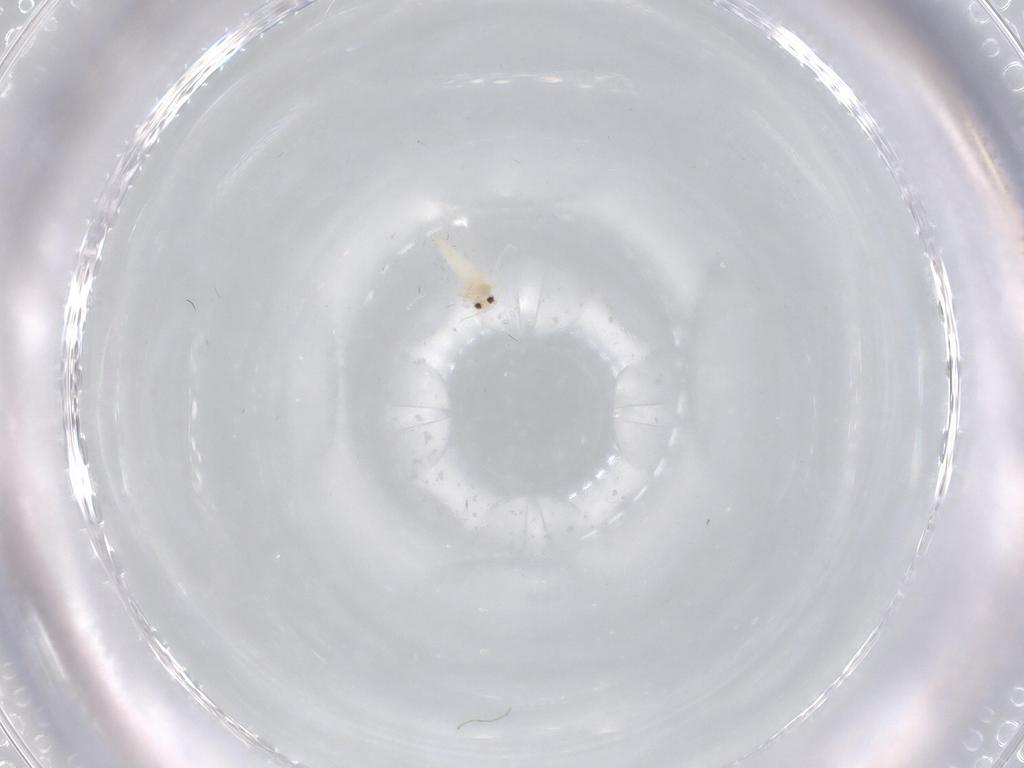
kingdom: Animalia
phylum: Arthropoda
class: Insecta
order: Hemiptera
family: Aleyrodidae
